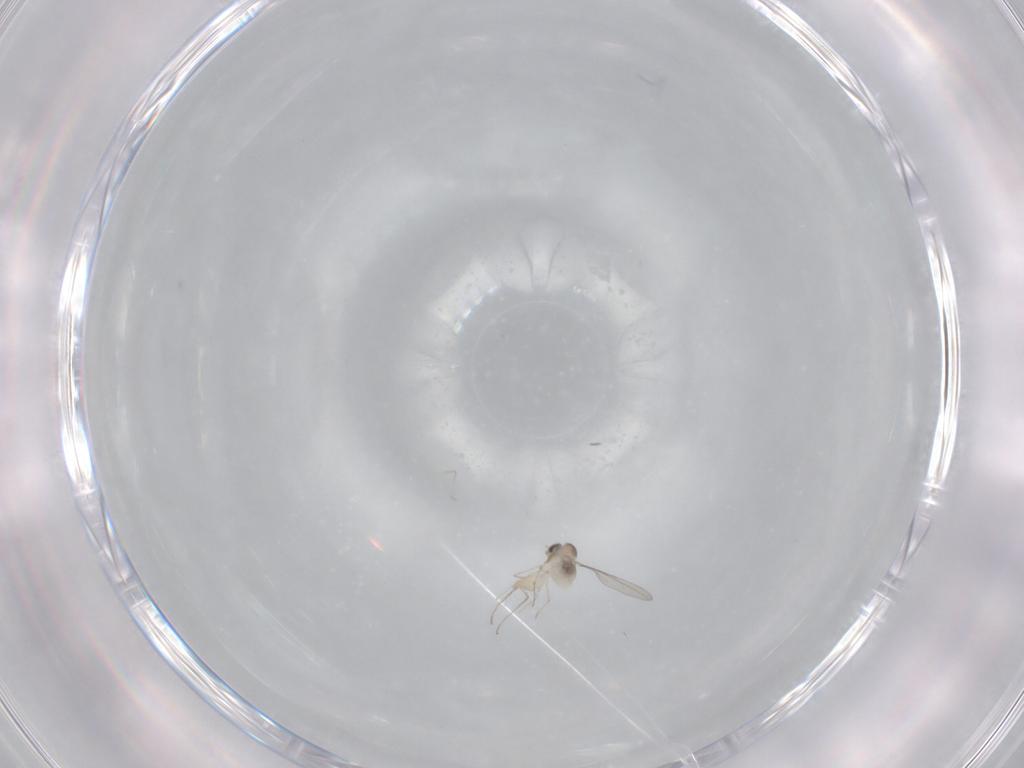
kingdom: Animalia
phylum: Arthropoda
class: Insecta
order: Diptera
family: Cecidomyiidae
